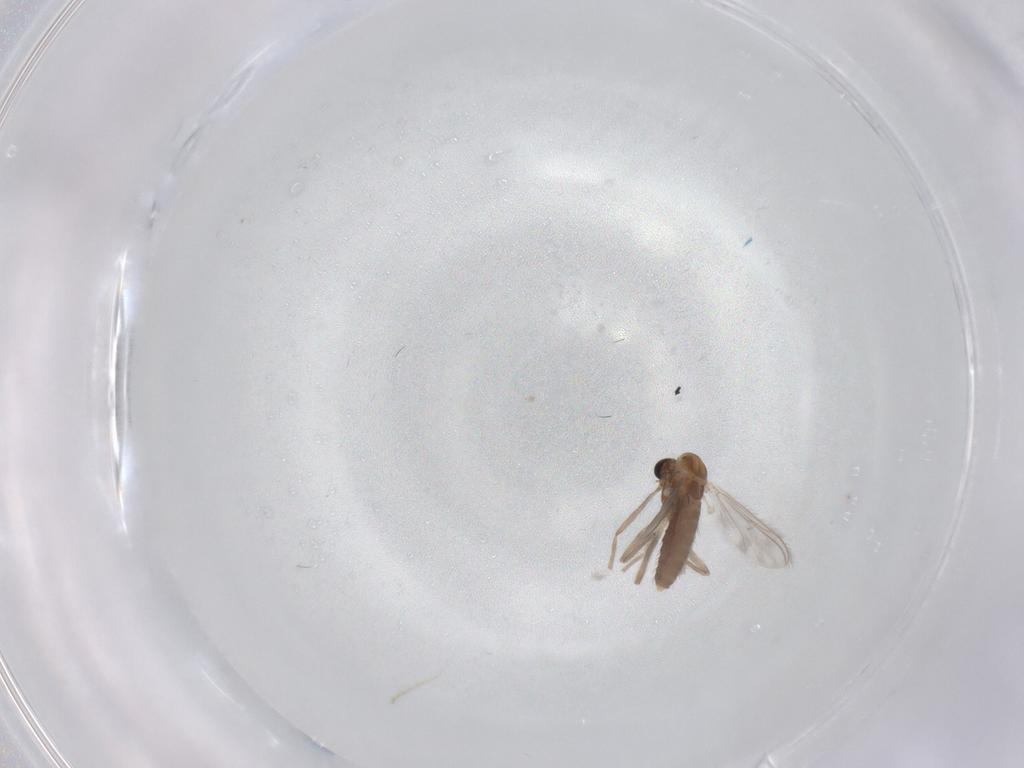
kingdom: Animalia
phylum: Arthropoda
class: Insecta
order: Diptera
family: Chironomidae
